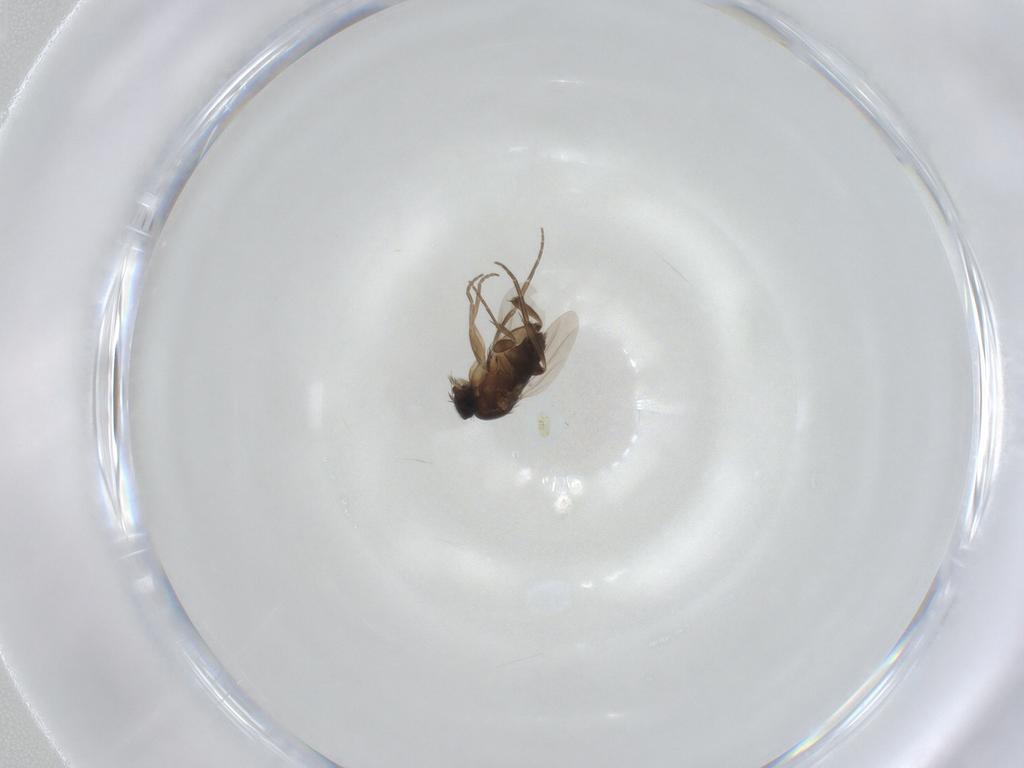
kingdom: Animalia
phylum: Arthropoda
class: Insecta
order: Diptera
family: Phoridae
